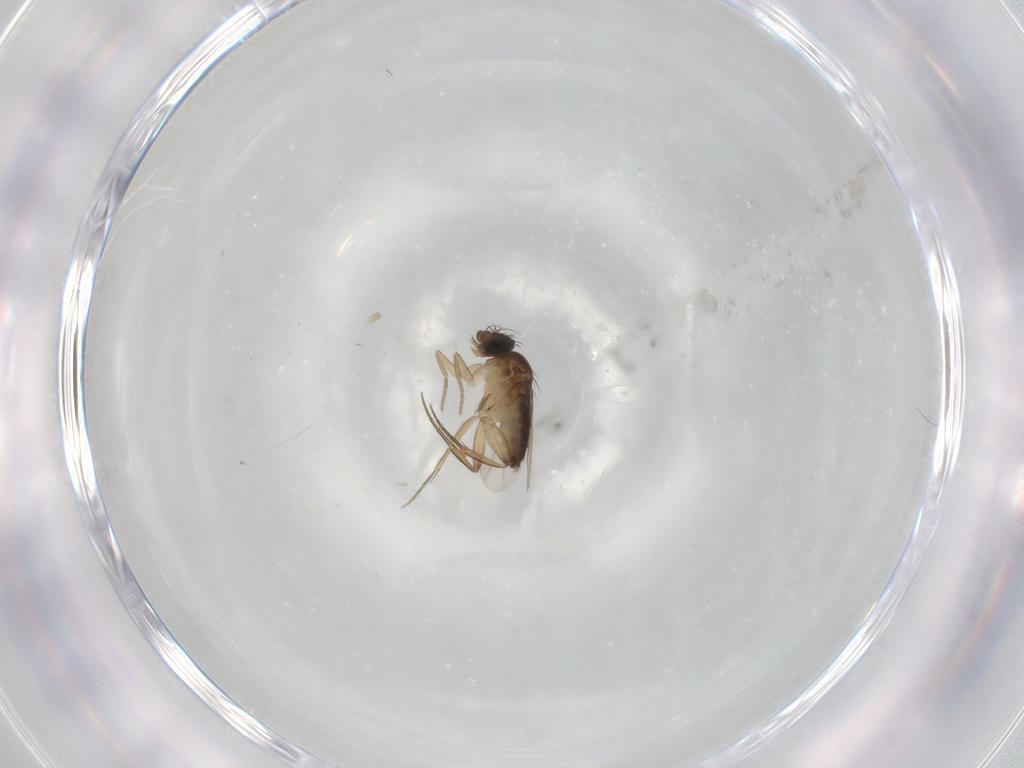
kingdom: Animalia
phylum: Arthropoda
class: Insecta
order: Diptera
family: Phoridae
